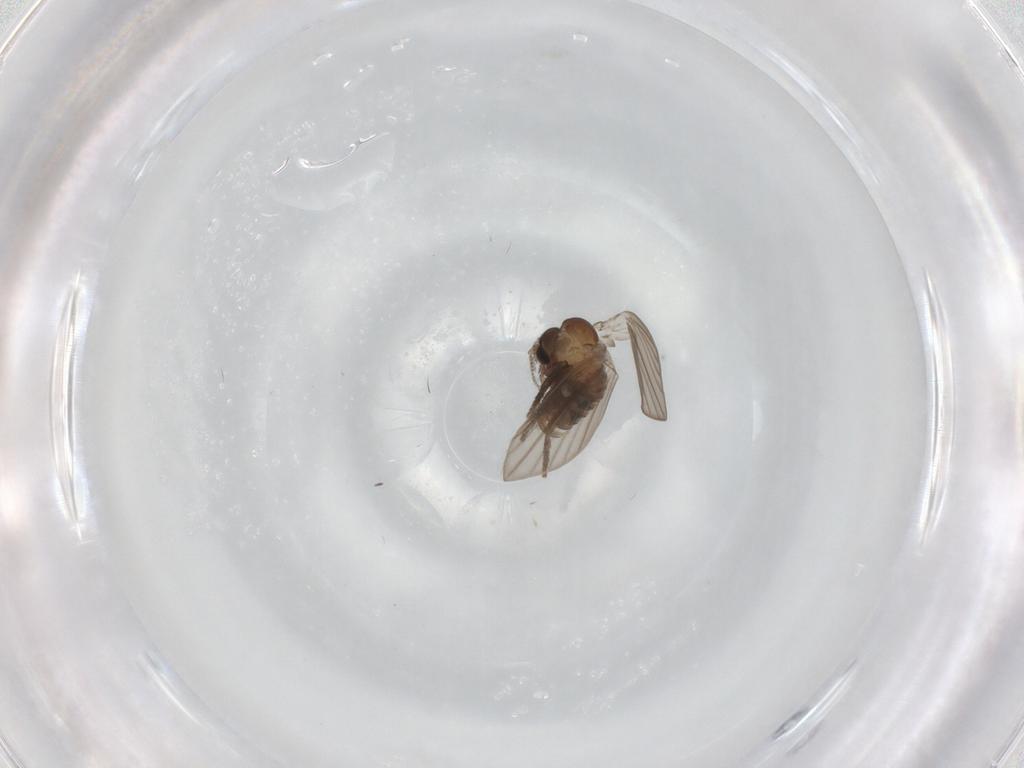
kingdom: Animalia
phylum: Arthropoda
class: Insecta
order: Diptera
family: Psychodidae
